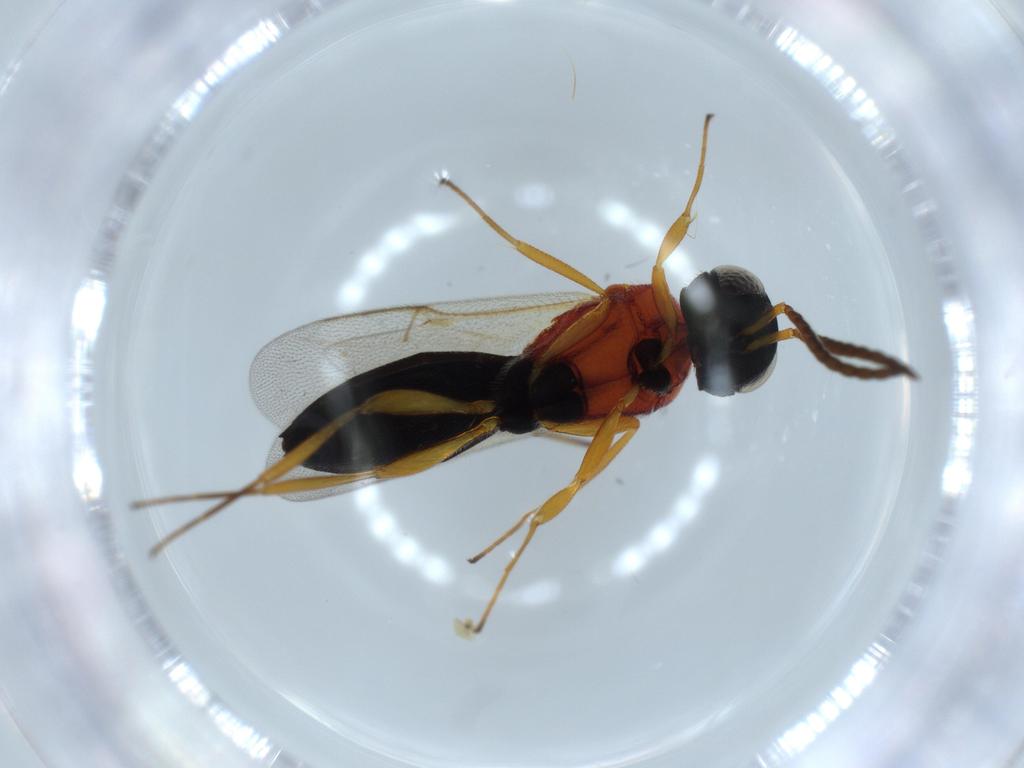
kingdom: Animalia
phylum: Arthropoda
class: Insecta
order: Hymenoptera
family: Scelionidae
